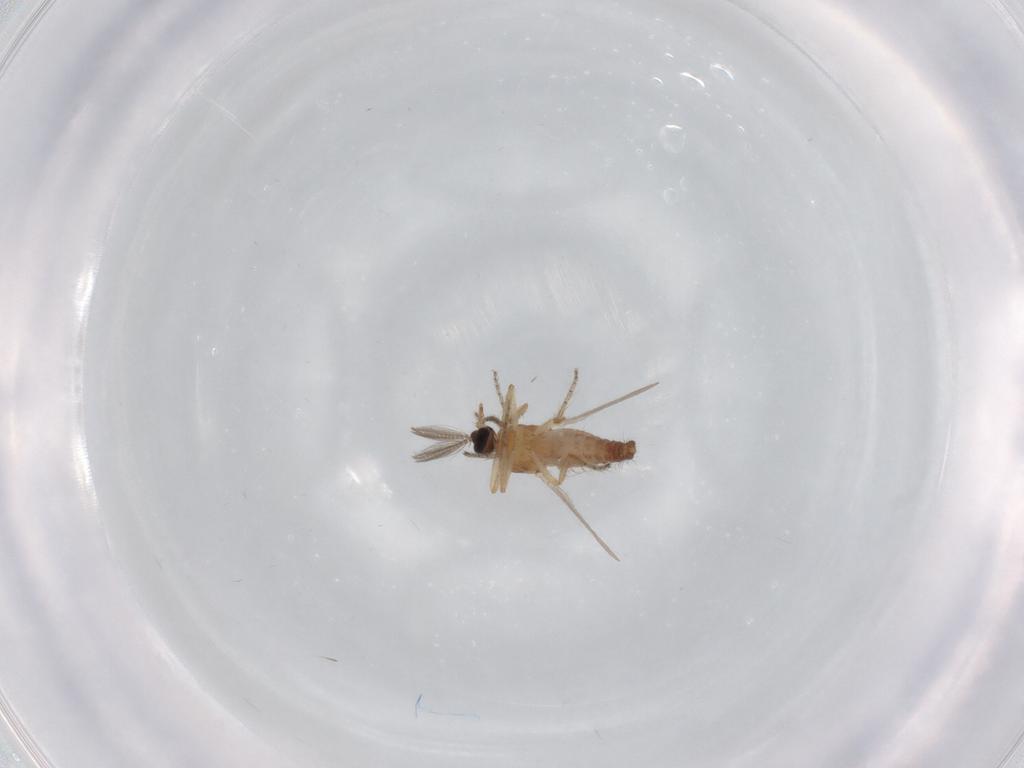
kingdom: Animalia
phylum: Arthropoda
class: Insecta
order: Diptera
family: Ceratopogonidae
